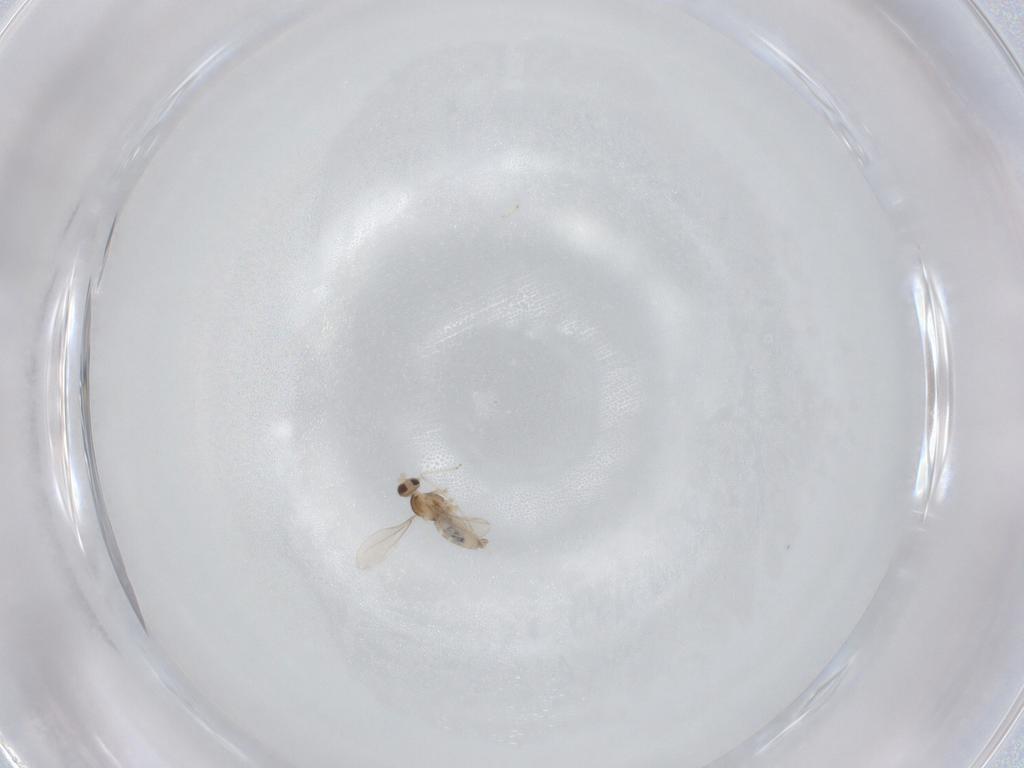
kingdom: Animalia
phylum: Arthropoda
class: Insecta
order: Diptera
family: Cecidomyiidae
